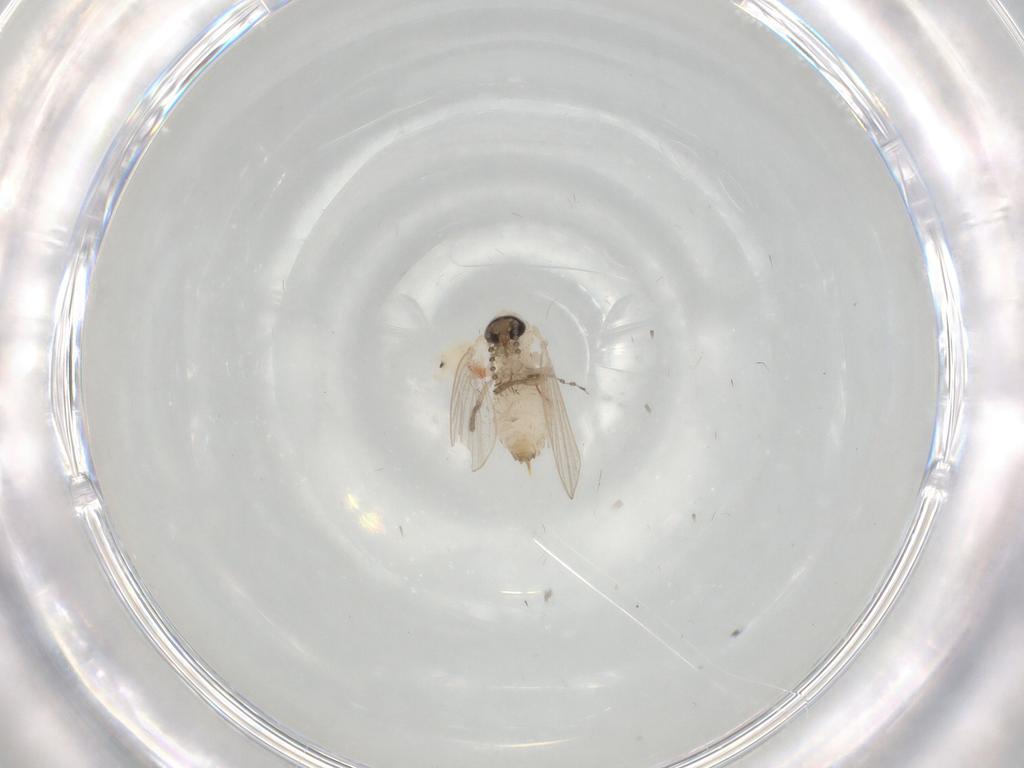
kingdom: Animalia
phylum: Arthropoda
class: Insecta
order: Diptera
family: Psychodidae
